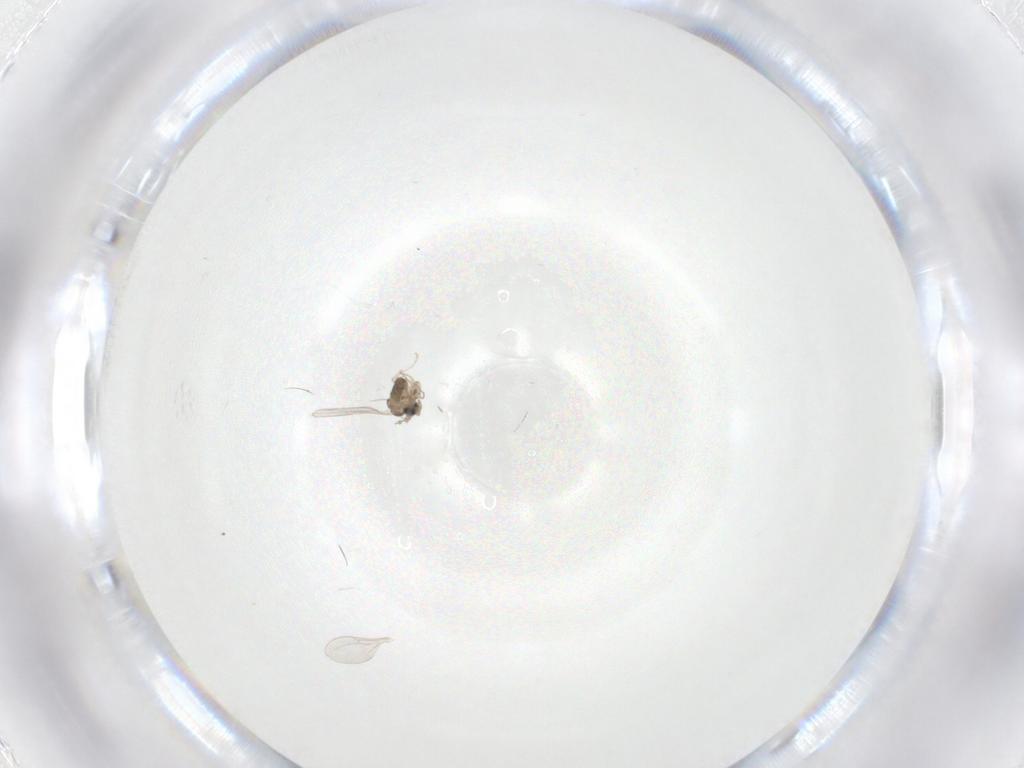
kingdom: Animalia
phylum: Arthropoda
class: Insecta
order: Diptera
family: Cecidomyiidae
